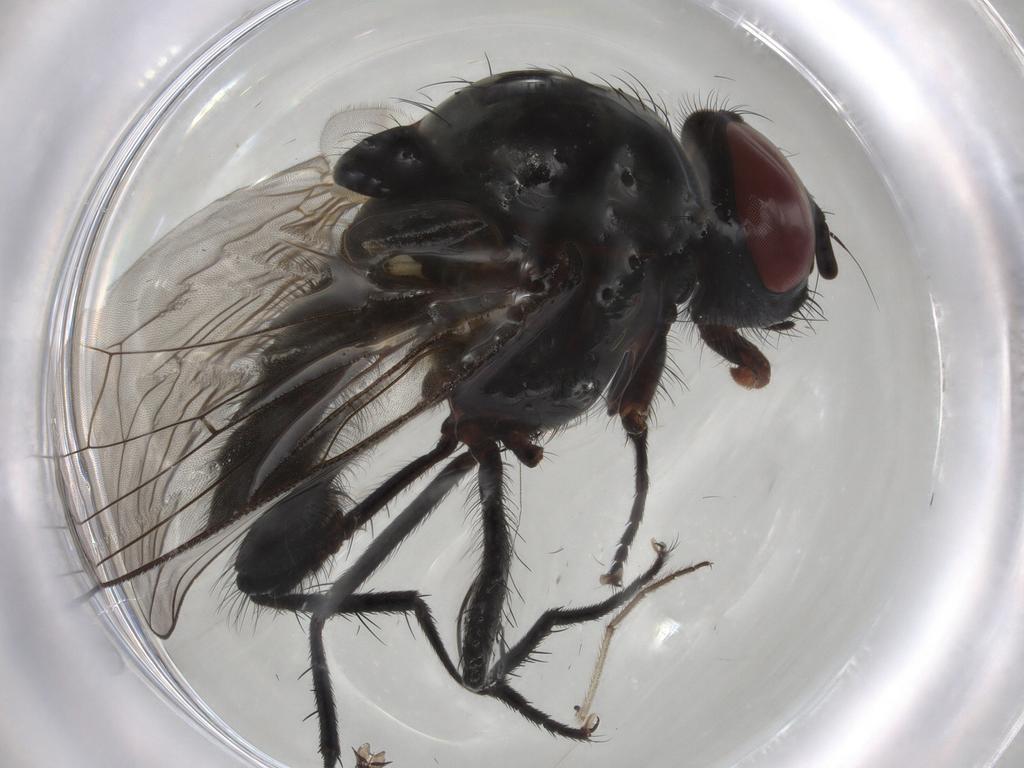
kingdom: Animalia
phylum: Arthropoda
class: Insecta
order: Diptera
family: Anthomyiidae
